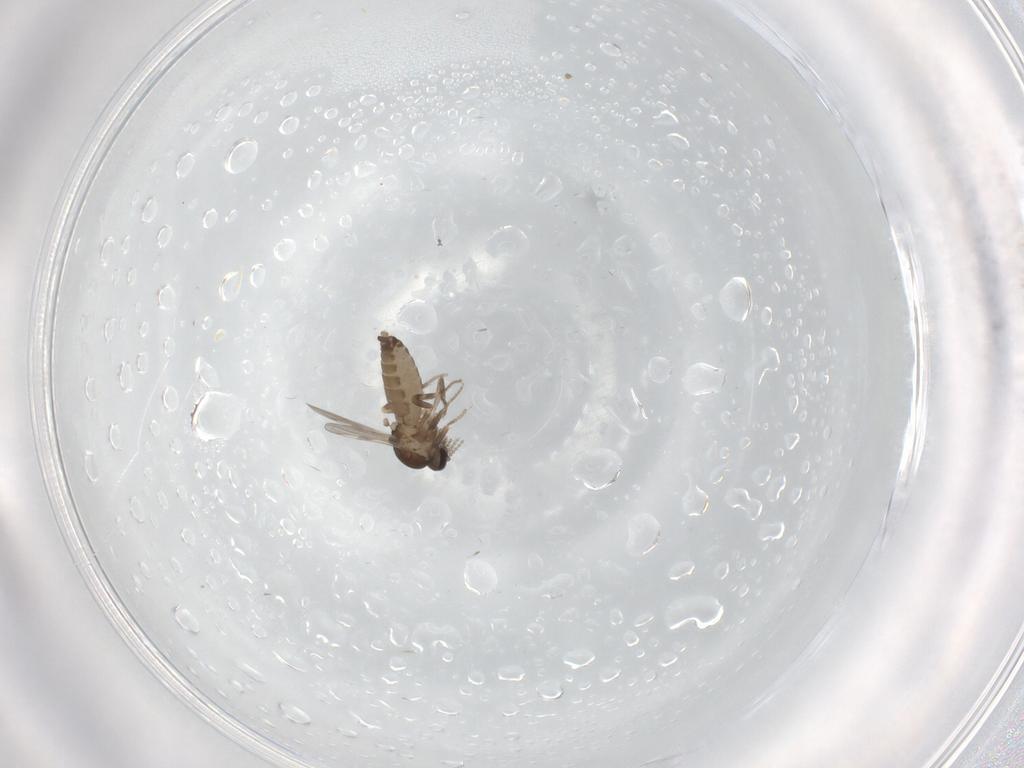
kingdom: Animalia
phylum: Arthropoda
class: Insecta
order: Diptera
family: Ceratopogonidae
